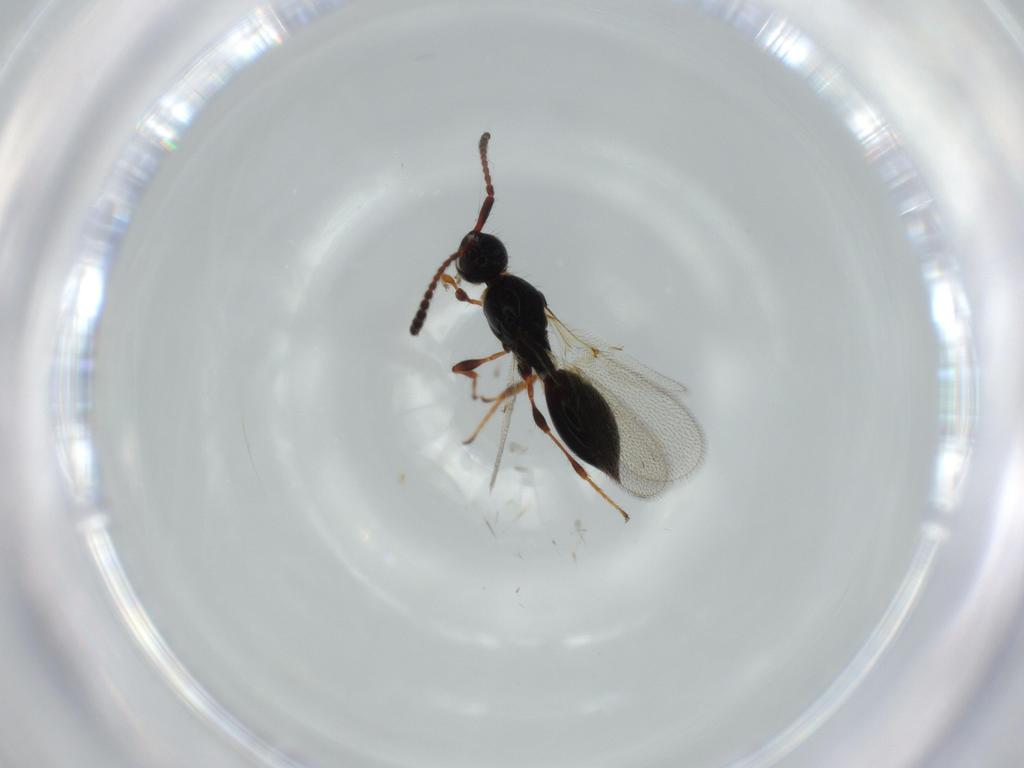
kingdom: Animalia
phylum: Arthropoda
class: Insecta
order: Hymenoptera
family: Diapriidae
